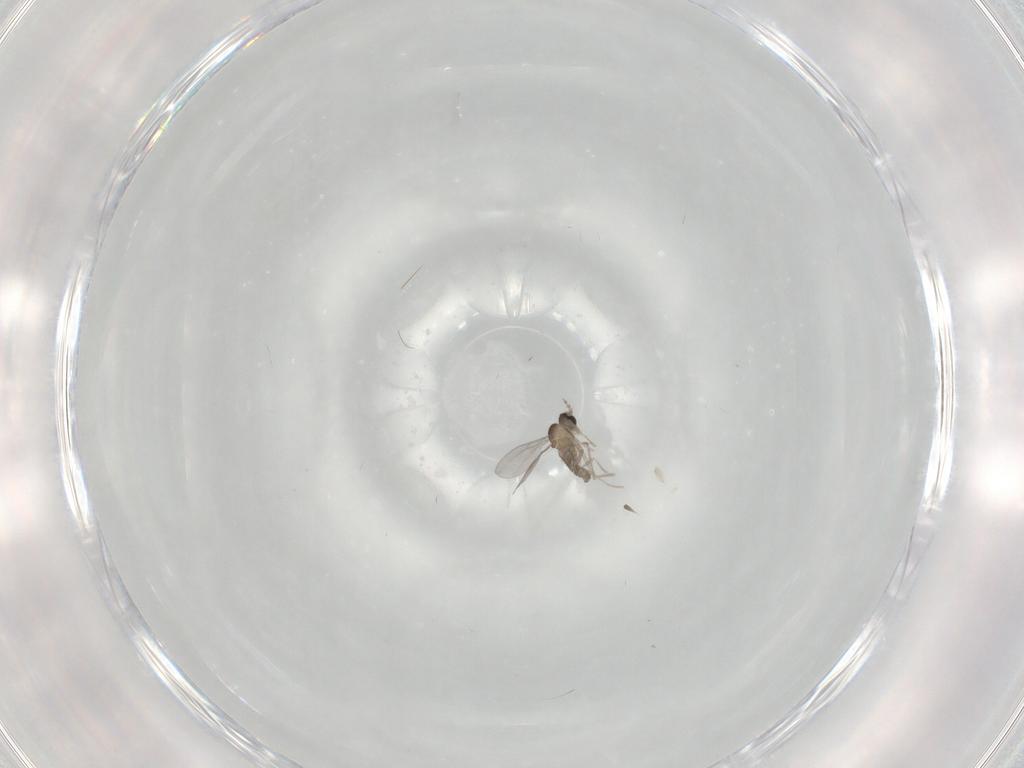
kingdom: Animalia
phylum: Arthropoda
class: Insecta
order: Diptera
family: Cecidomyiidae
